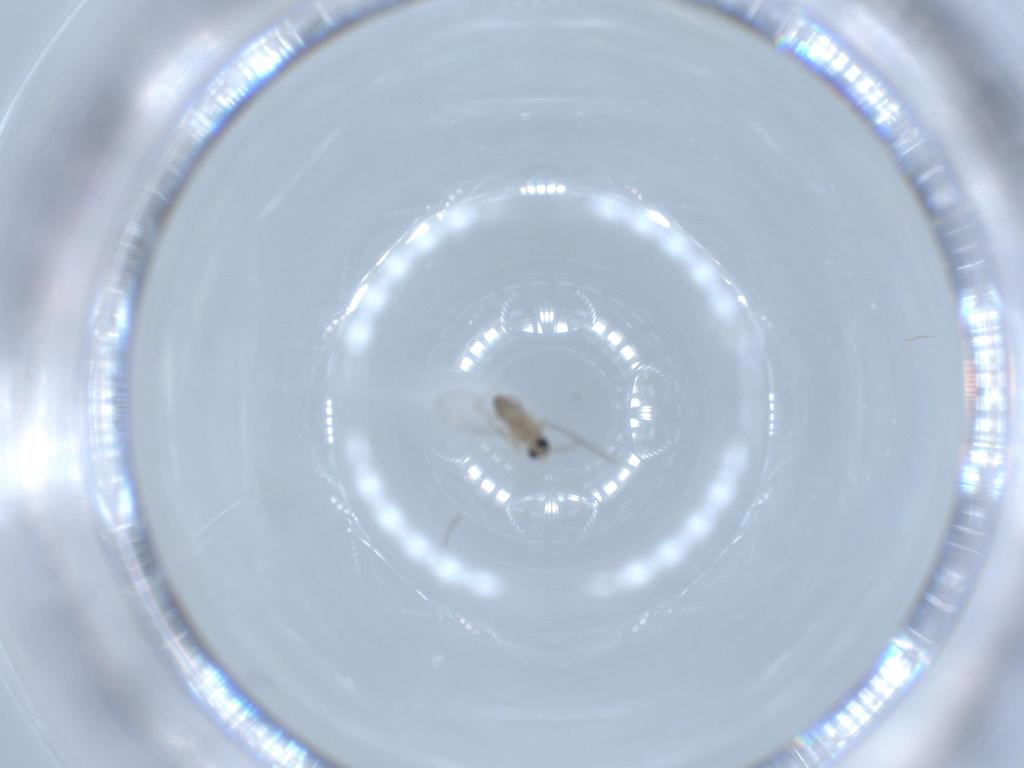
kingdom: Animalia
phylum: Arthropoda
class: Insecta
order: Diptera
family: Cecidomyiidae
